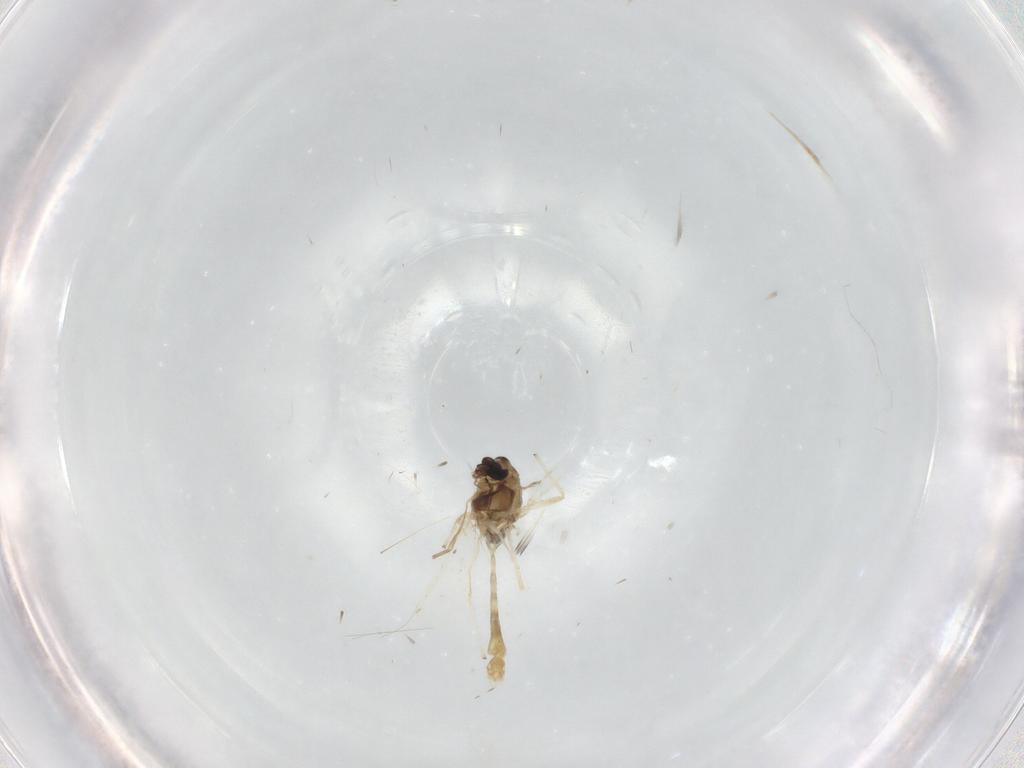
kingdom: Animalia
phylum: Arthropoda
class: Insecta
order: Diptera
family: Chironomidae
